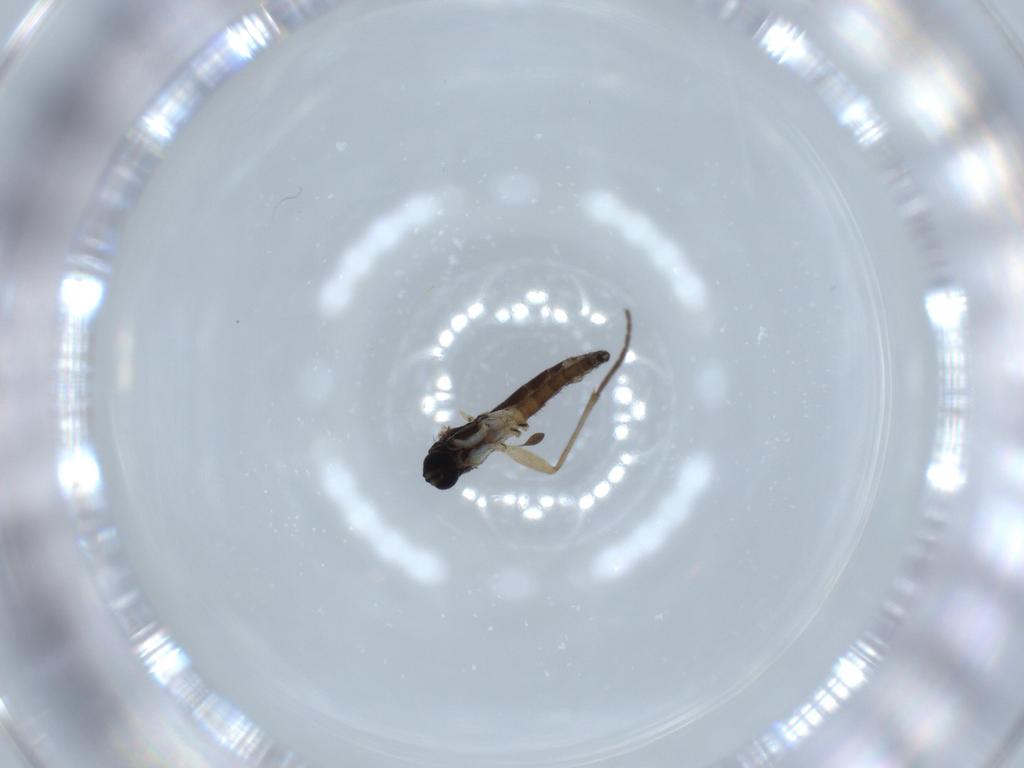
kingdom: Animalia
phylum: Arthropoda
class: Insecta
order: Diptera
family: Sciaridae
